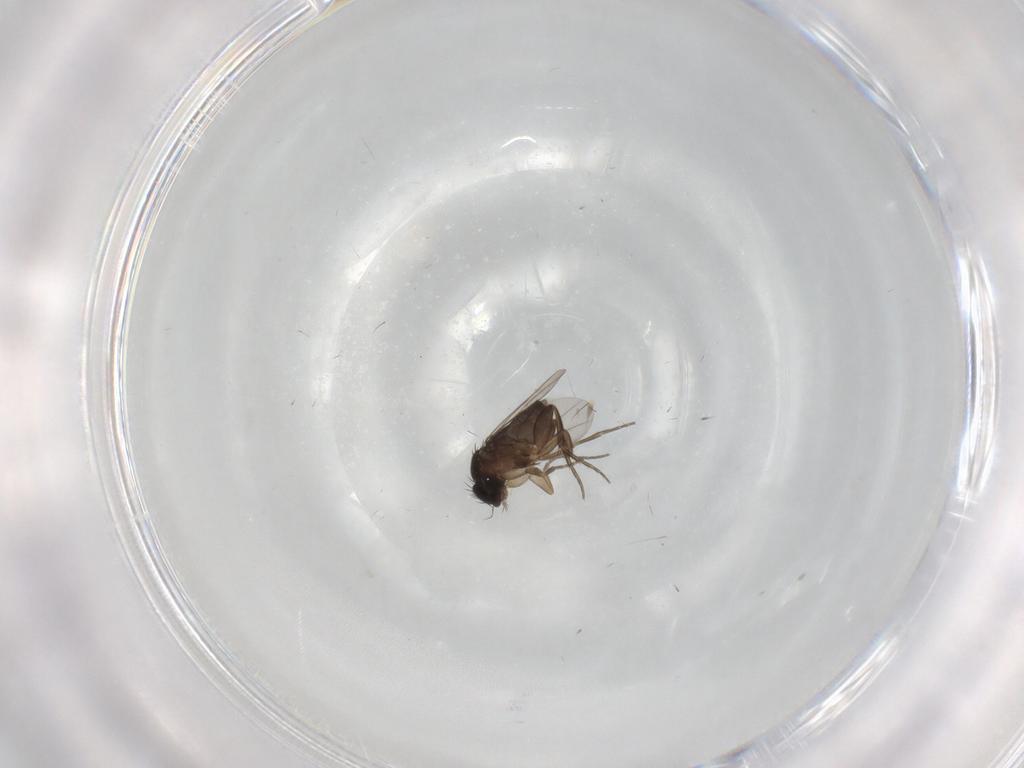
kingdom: Animalia
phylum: Arthropoda
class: Insecta
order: Diptera
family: Phoridae
